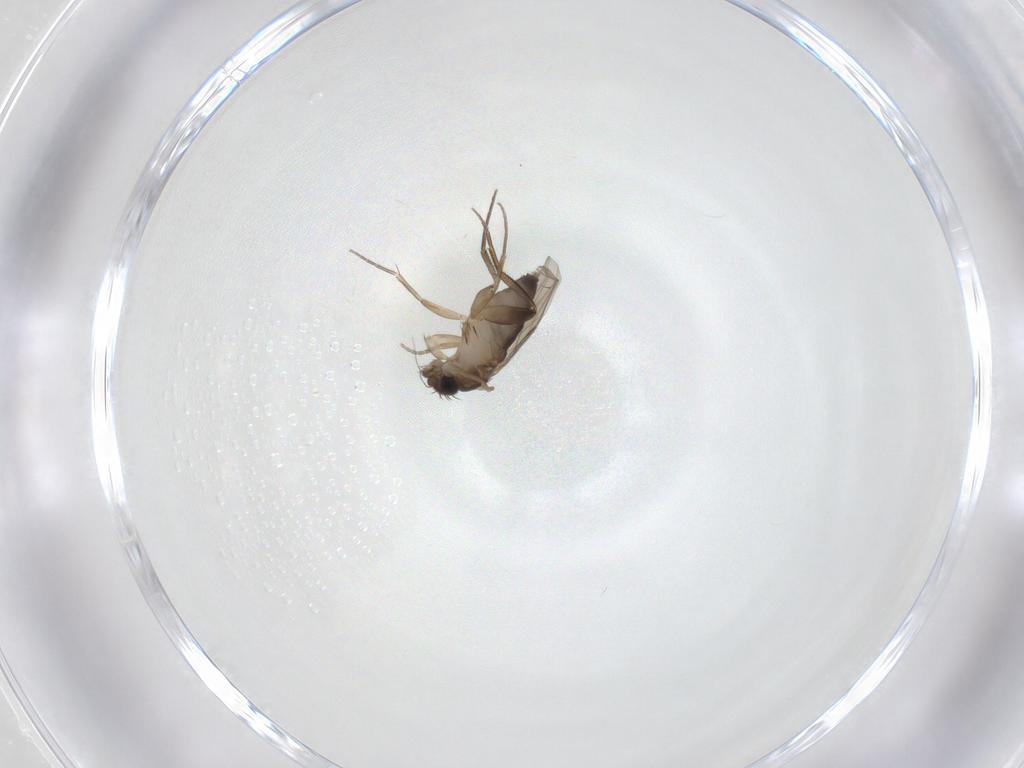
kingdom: Animalia
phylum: Arthropoda
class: Insecta
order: Diptera
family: Phoridae
